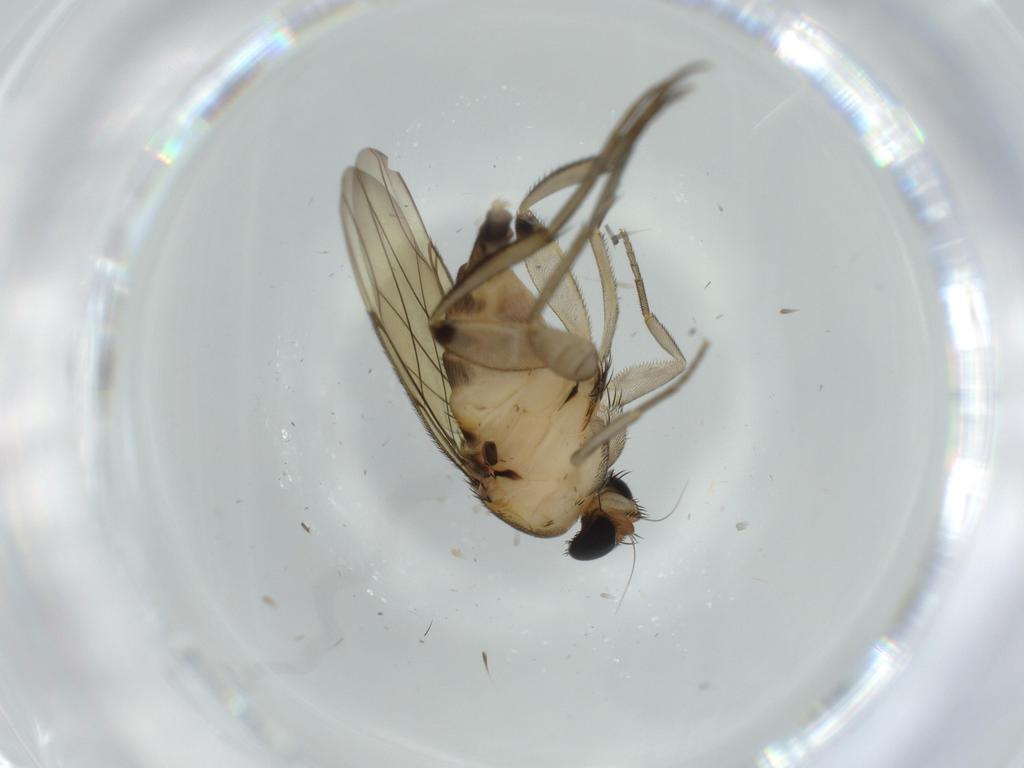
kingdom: Animalia
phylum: Arthropoda
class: Insecta
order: Diptera
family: Phoridae
